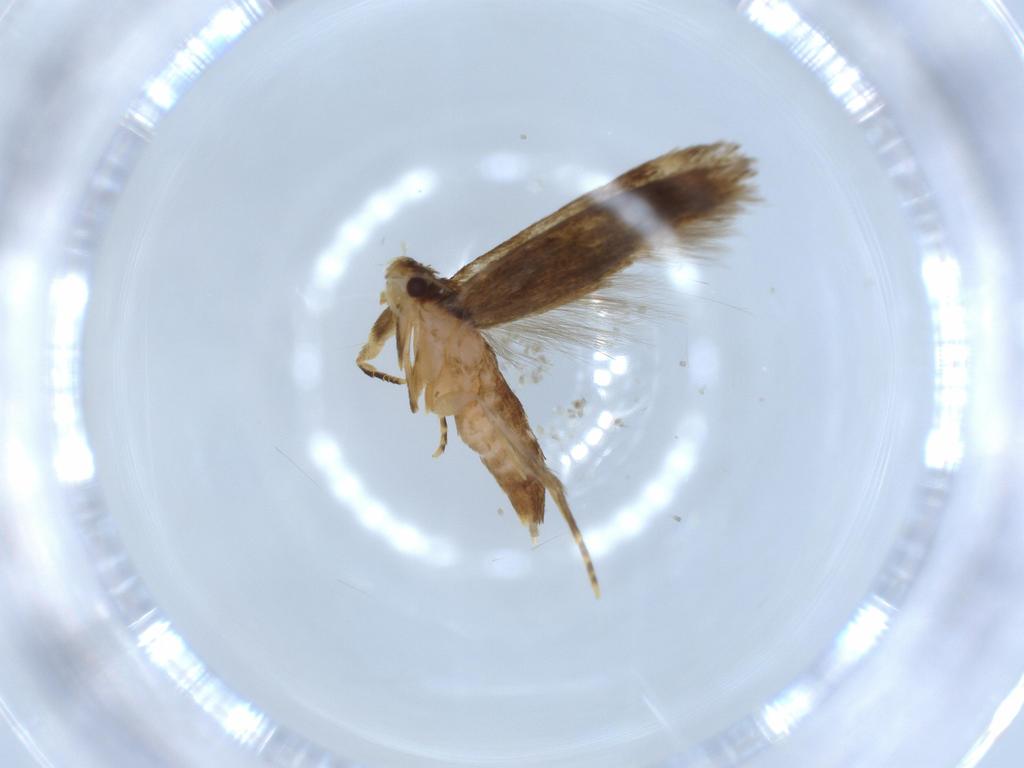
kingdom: Animalia
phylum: Arthropoda
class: Insecta
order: Lepidoptera
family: Tineidae
